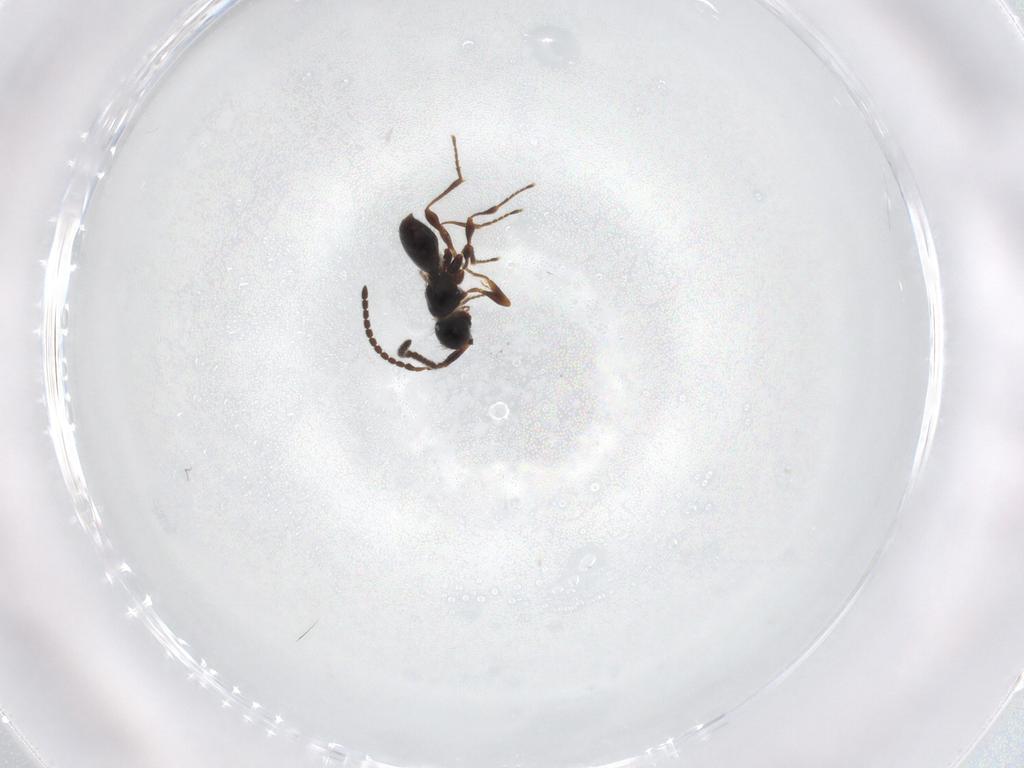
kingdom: Animalia
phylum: Arthropoda
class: Insecta
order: Hymenoptera
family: Diapriidae
